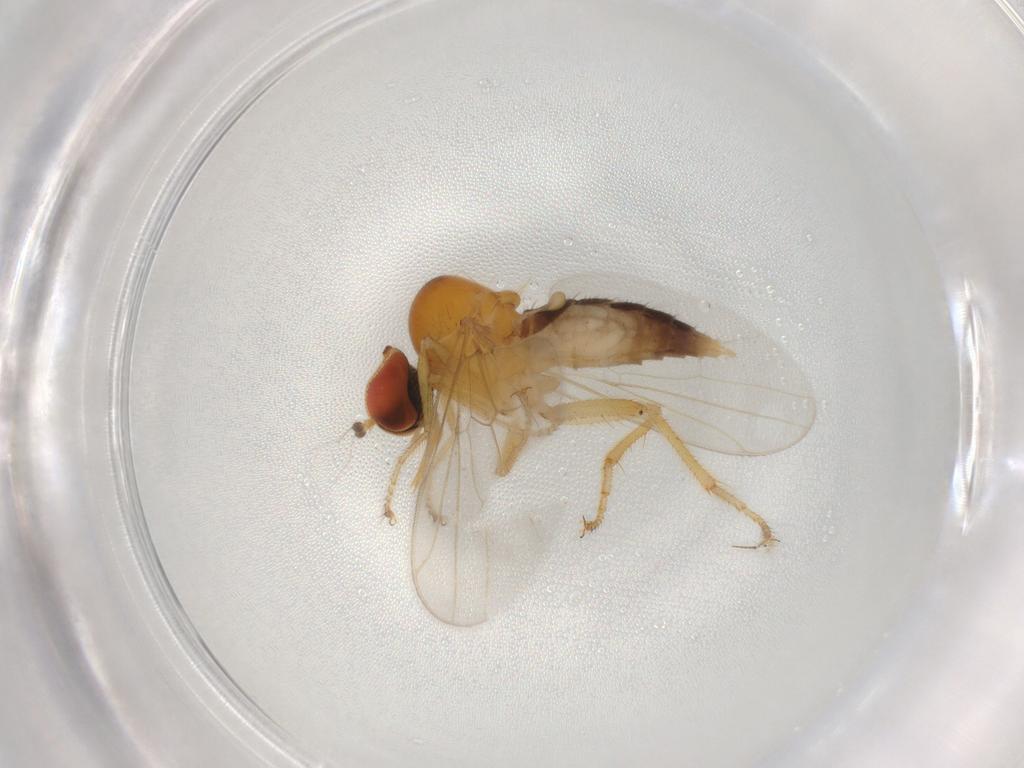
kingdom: Animalia
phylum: Arthropoda
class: Insecta
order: Diptera
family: Hybotidae
